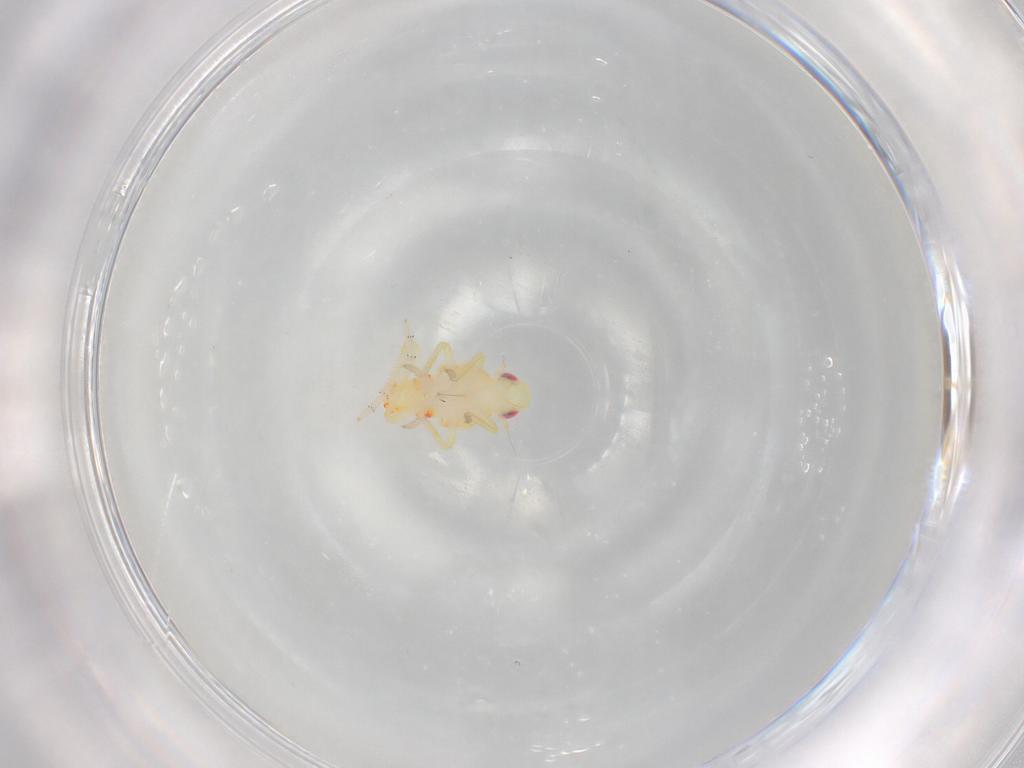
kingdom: Animalia
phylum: Arthropoda
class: Insecta
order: Hemiptera
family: Tropiduchidae
